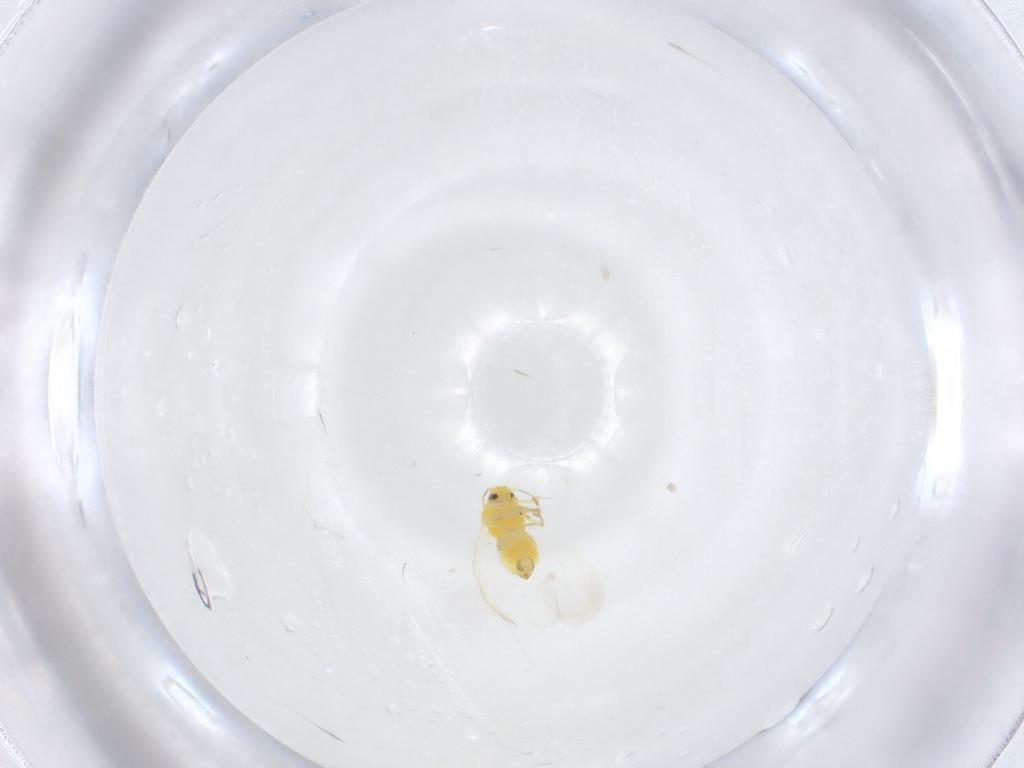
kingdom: Animalia
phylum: Arthropoda
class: Insecta
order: Hemiptera
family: Aleyrodidae
